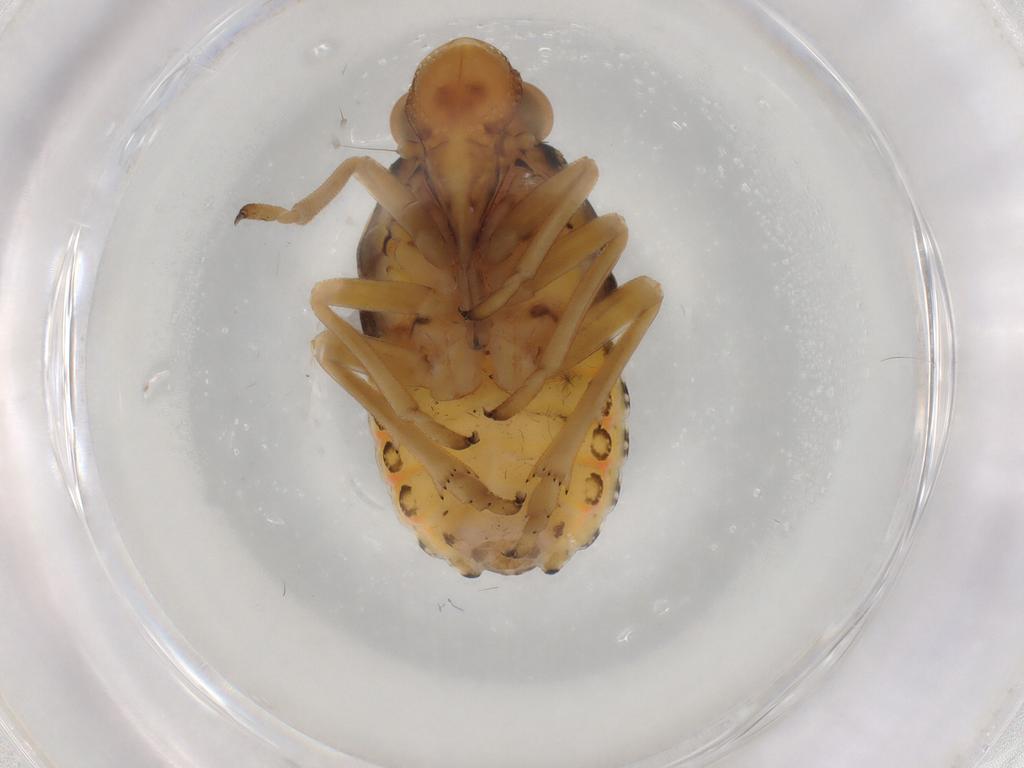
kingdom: Animalia
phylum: Arthropoda
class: Insecta
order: Hemiptera
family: Caliscelidae
